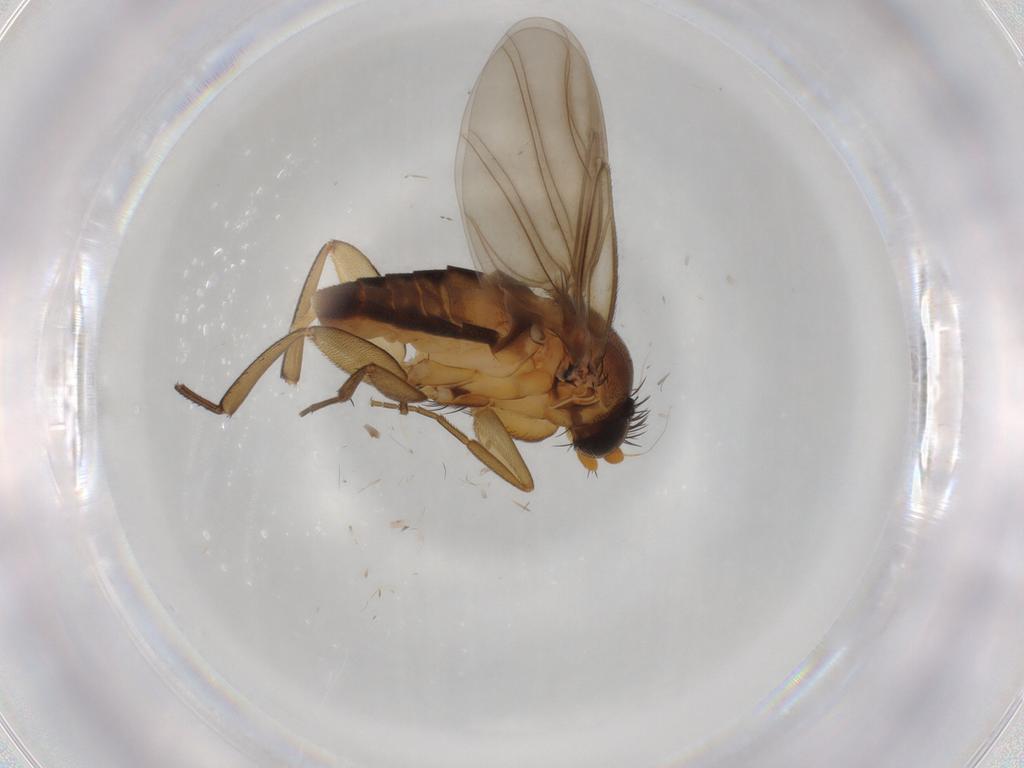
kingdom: Animalia
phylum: Arthropoda
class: Insecta
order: Diptera
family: Phoridae
